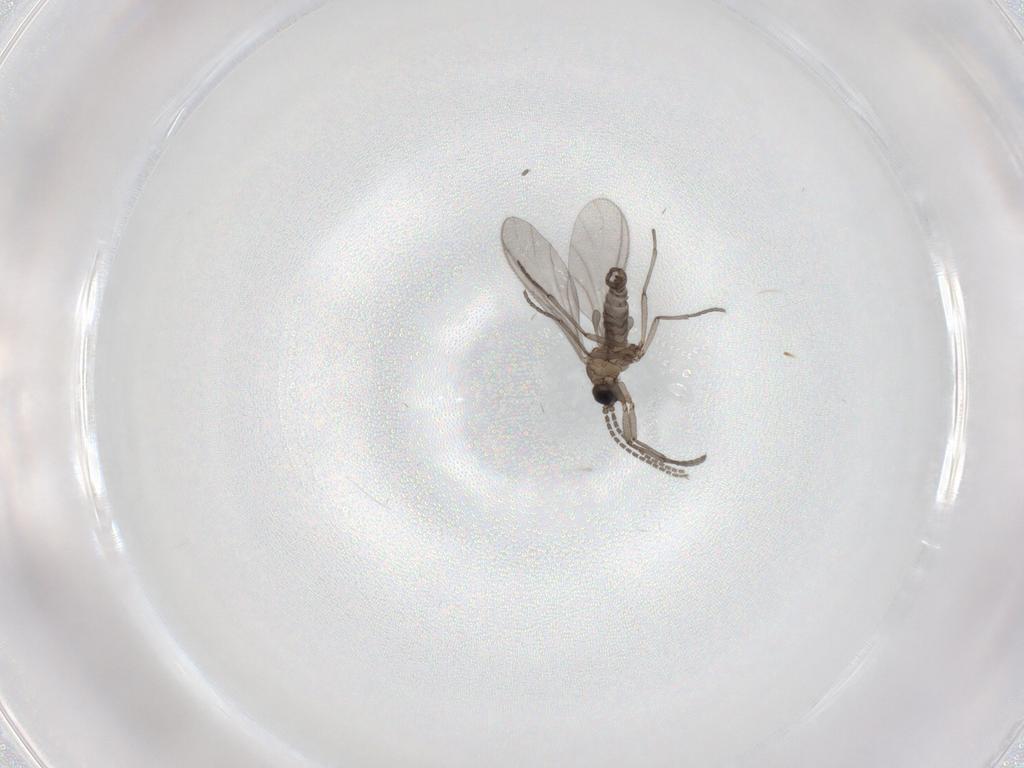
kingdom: Animalia
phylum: Arthropoda
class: Insecta
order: Diptera
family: Sciaridae
